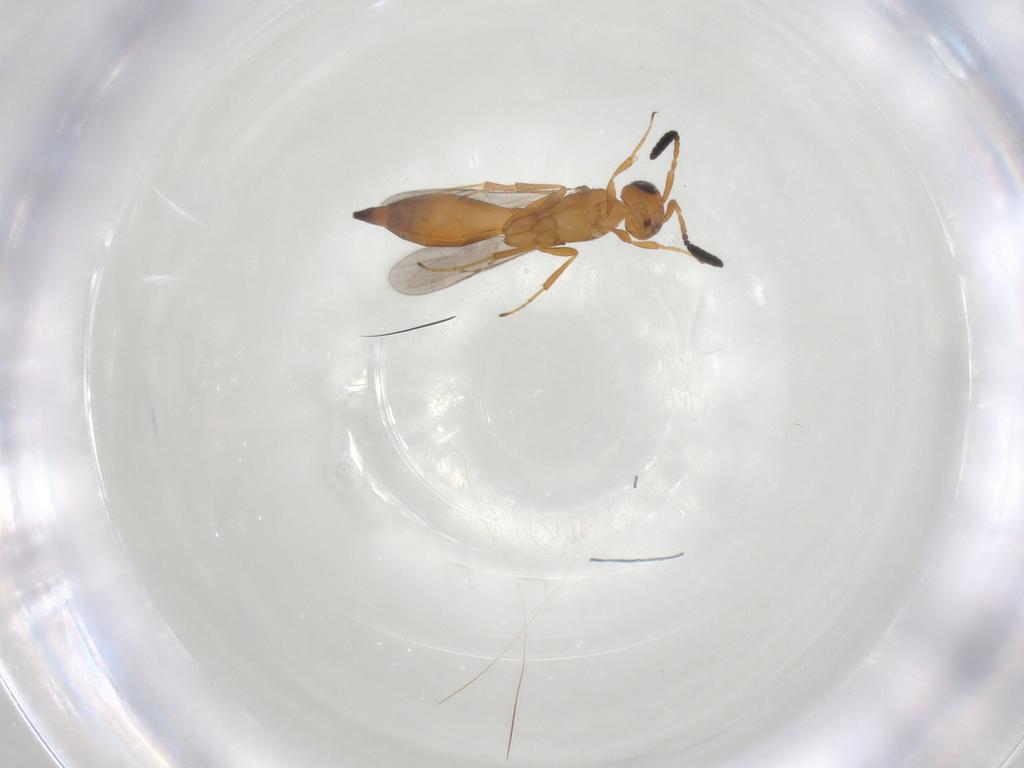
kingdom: Animalia
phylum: Arthropoda
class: Insecta
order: Hymenoptera
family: Scelionidae
